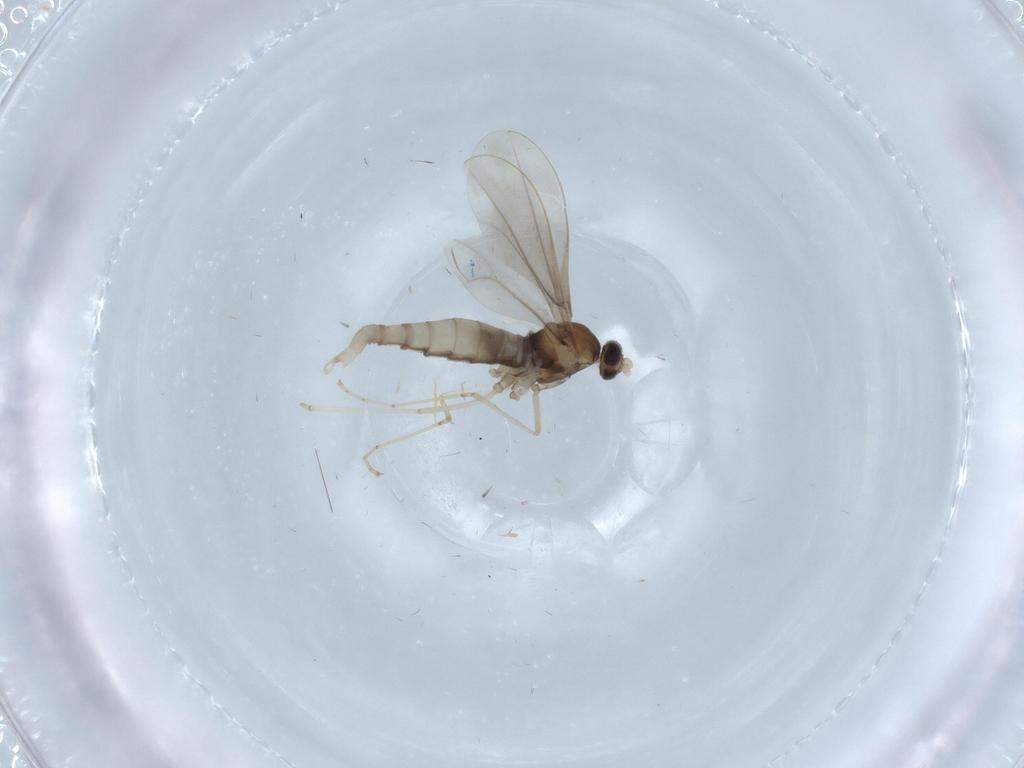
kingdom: Animalia
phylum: Arthropoda
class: Insecta
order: Diptera
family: Cecidomyiidae
